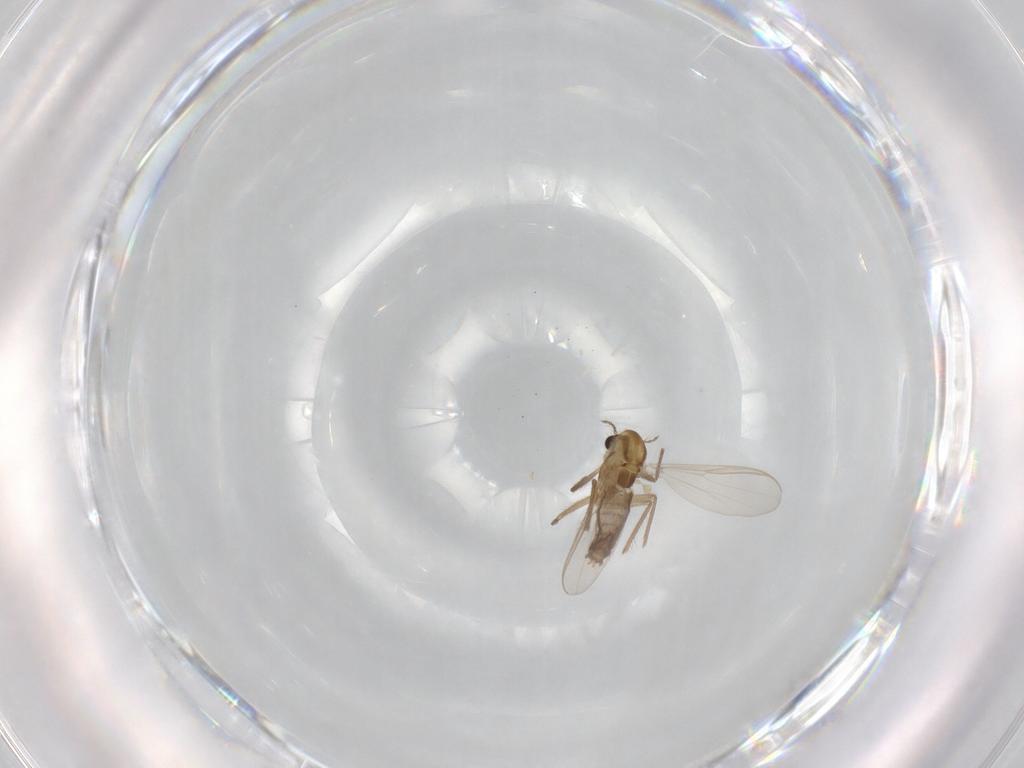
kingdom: Animalia
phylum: Arthropoda
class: Insecta
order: Diptera
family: Chironomidae
